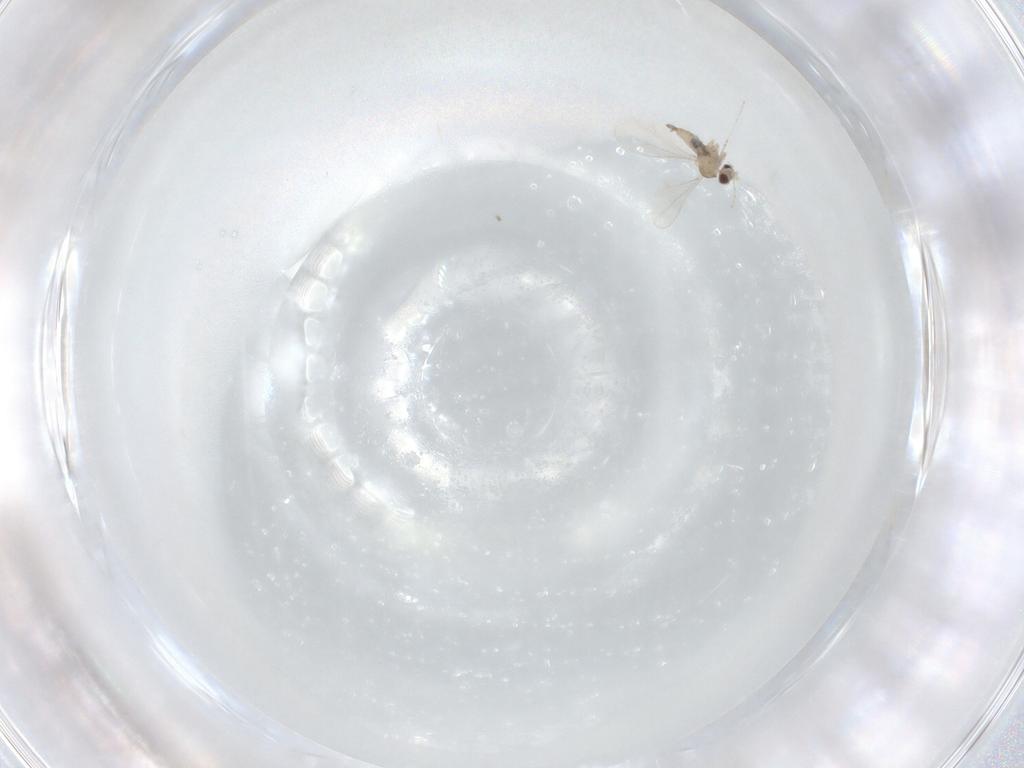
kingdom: Animalia
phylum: Arthropoda
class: Insecta
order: Diptera
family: Cecidomyiidae
